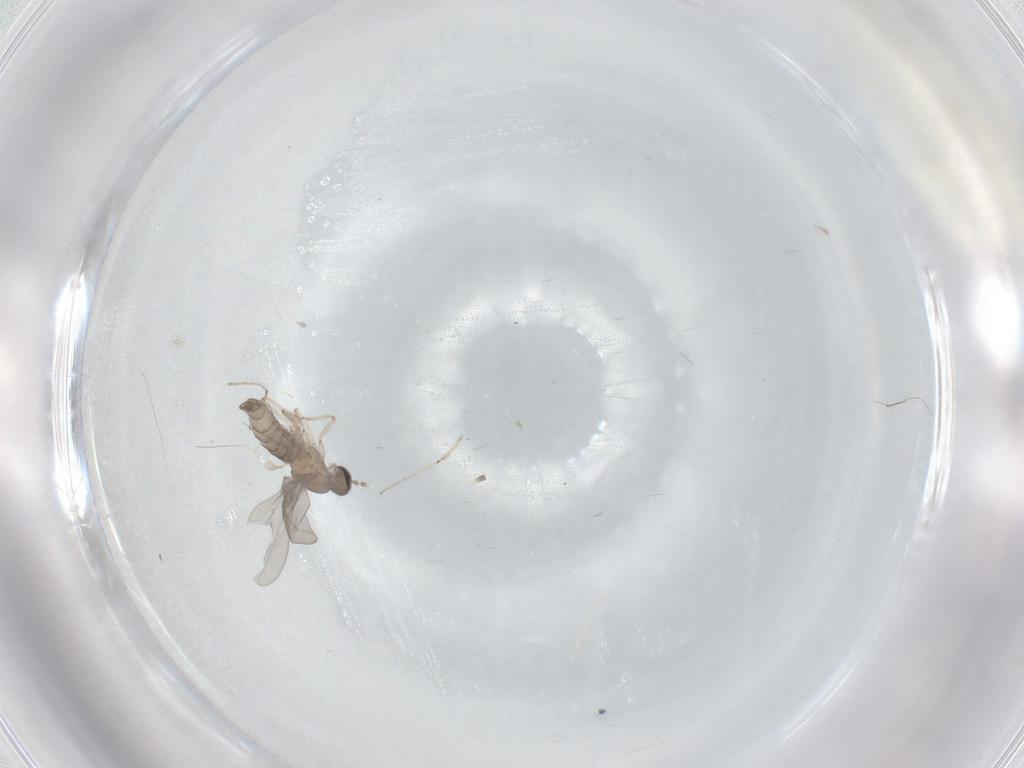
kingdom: Animalia
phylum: Arthropoda
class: Insecta
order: Diptera
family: Cecidomyiidae
